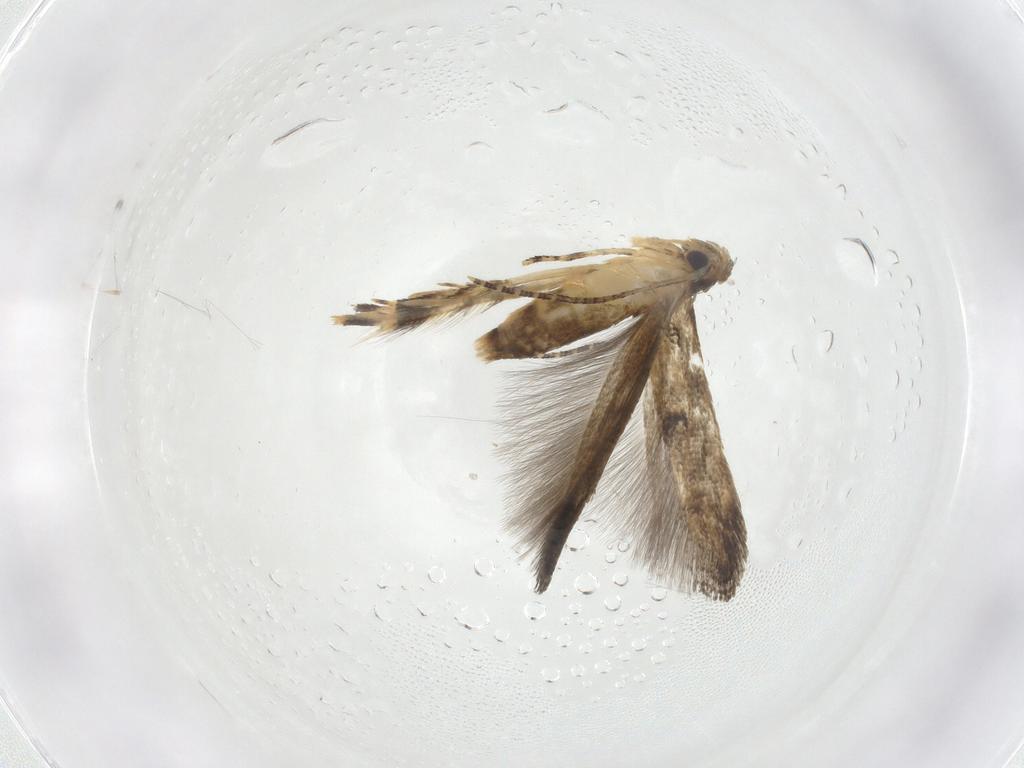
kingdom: Animalia
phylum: Arthropoda
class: Insecta
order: Lepidoptera
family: Momphidae
